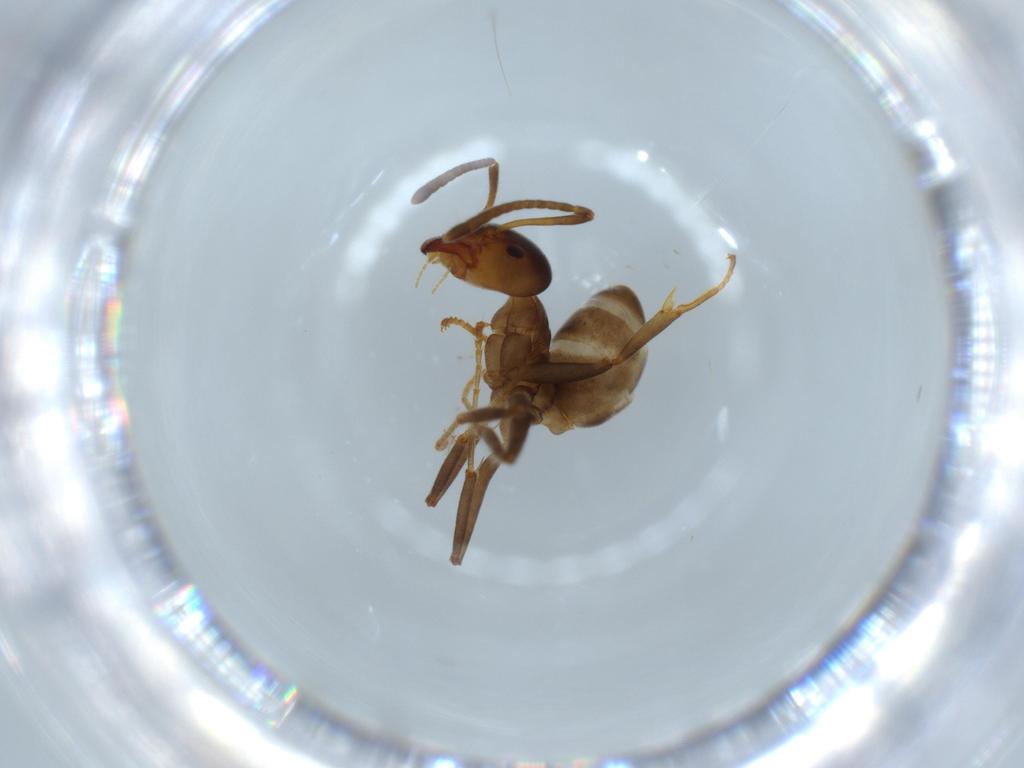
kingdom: Animalia
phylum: Arthropoda
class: Insecta
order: Hymenoptera
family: Formicidae
